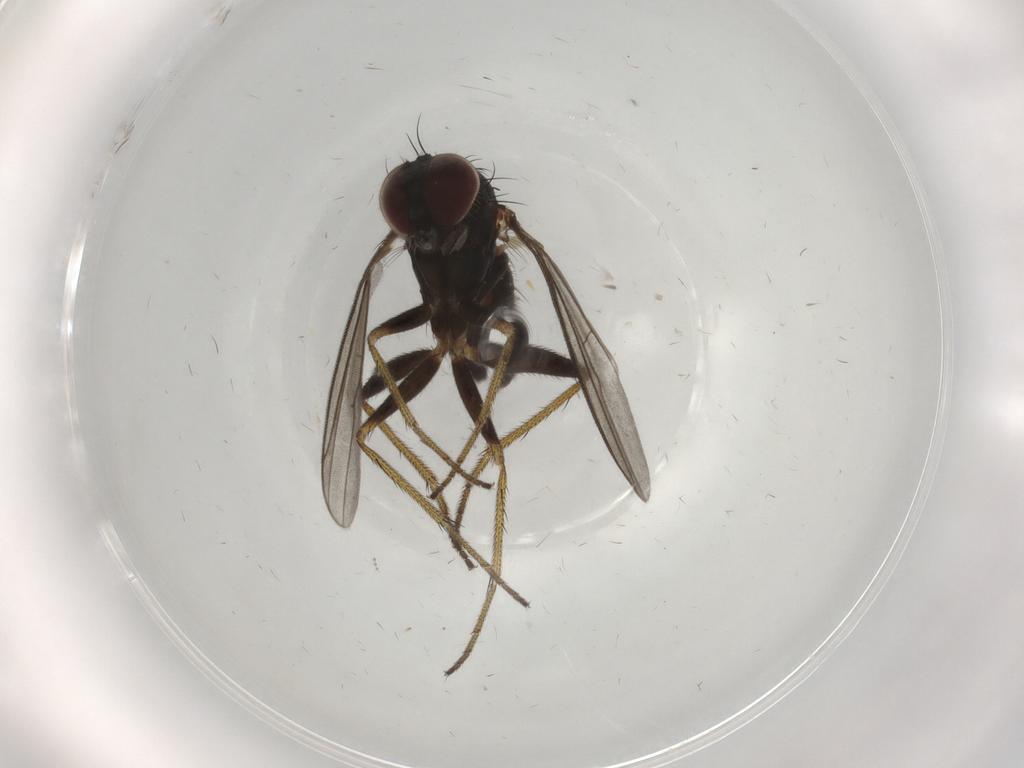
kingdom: Animalia
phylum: Arthropoda
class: Insecta
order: Diptera
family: Dolichopodidae
